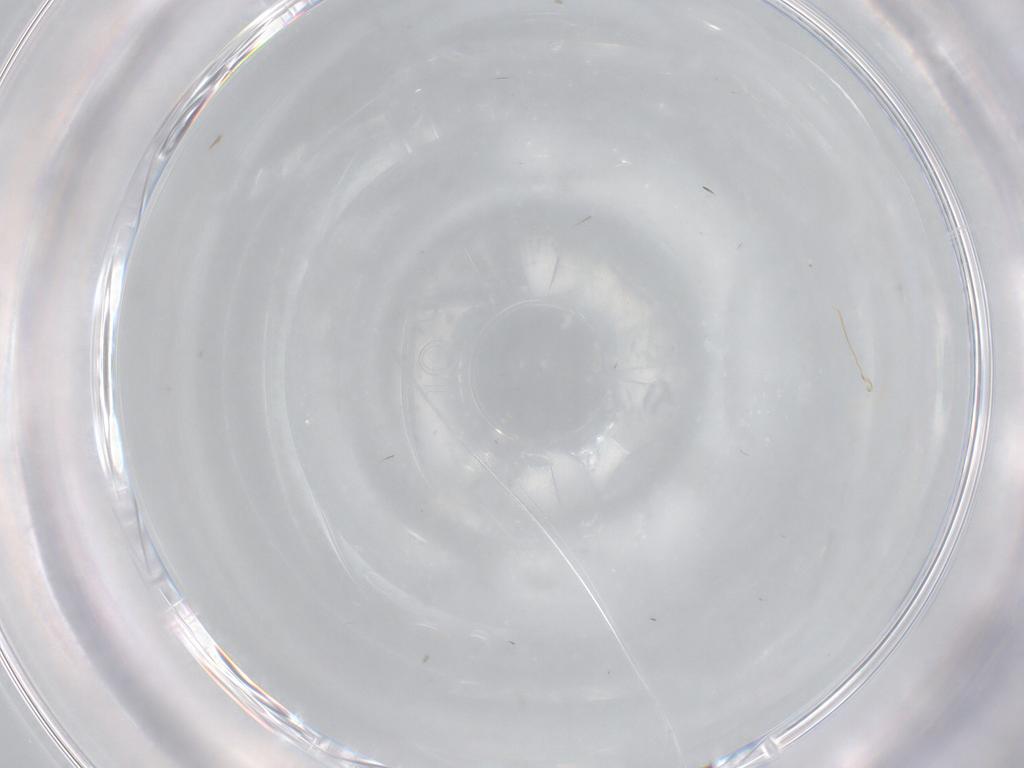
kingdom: Animalia
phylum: Arthropoda
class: Insecta
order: Diptera
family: Cecidomyiidae
